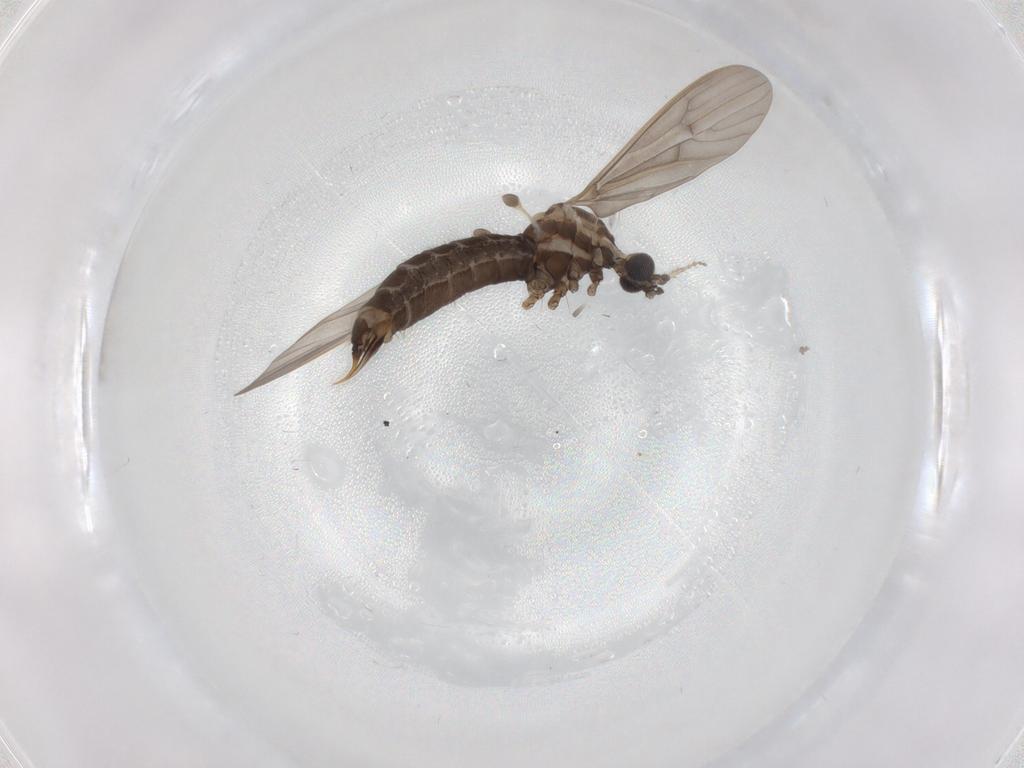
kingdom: Animalia
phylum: Arthropoda
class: Insecta
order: Diptera
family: Limoniidae
